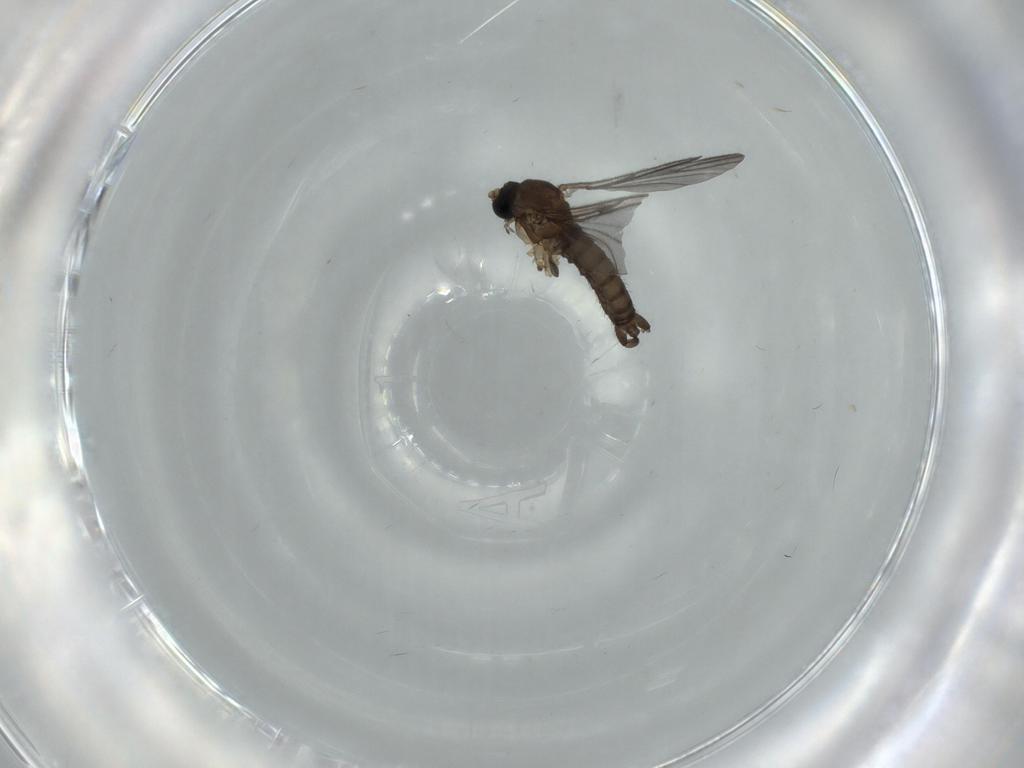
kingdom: Animalia
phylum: Arthropoda
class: Insecta
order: Diptera
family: Cecidomyiidae
